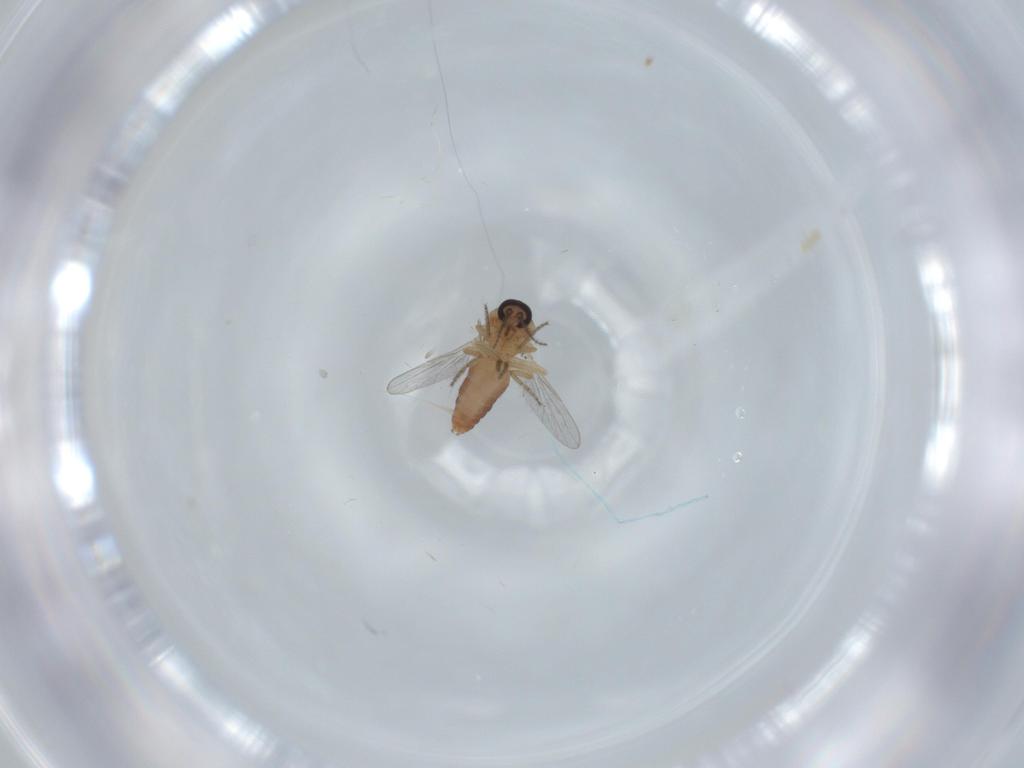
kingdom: Animalia
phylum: Arthropoda
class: Insecta
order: Diptera
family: Ceratopogonidae
